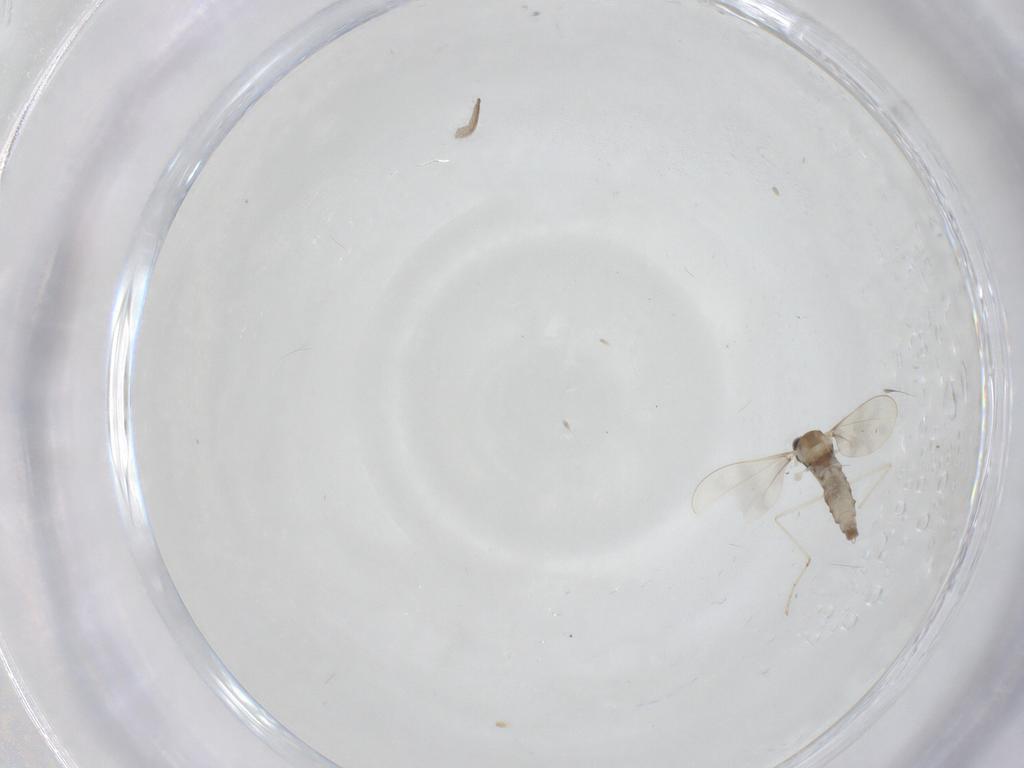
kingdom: Animalia
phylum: Arthropoda
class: Insecta
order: Diptera
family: Cecidomyiidae
